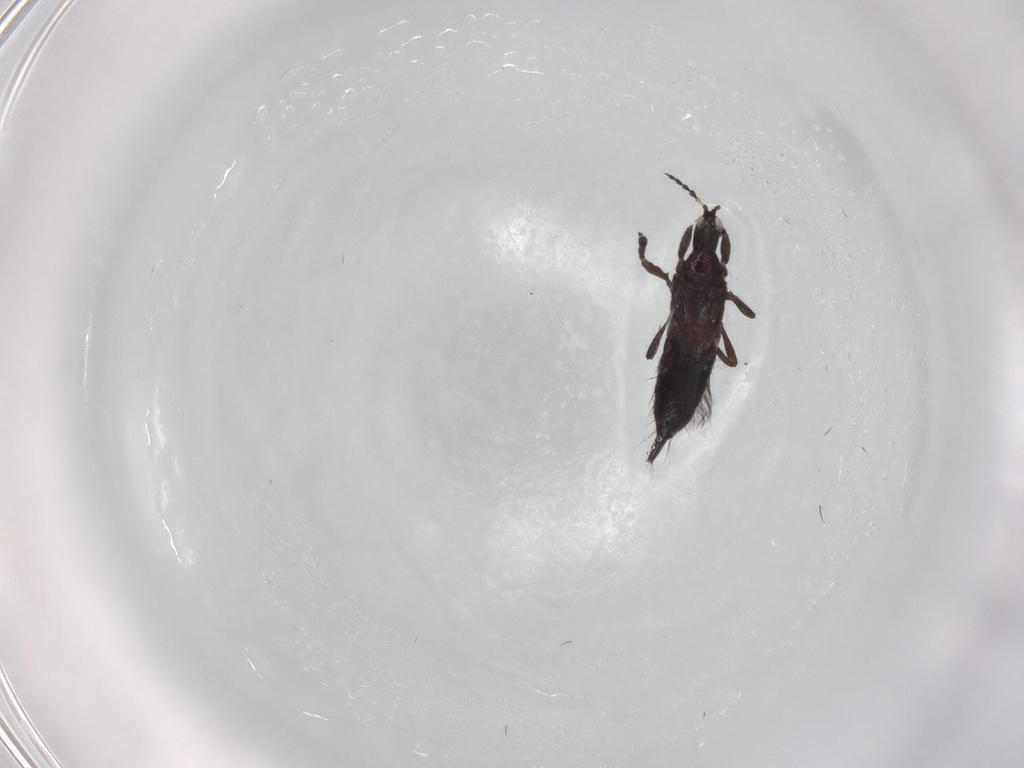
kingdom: Animalia
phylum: Arthropoda
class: Insecta
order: Thysanoptera
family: Phlaeothripidae
